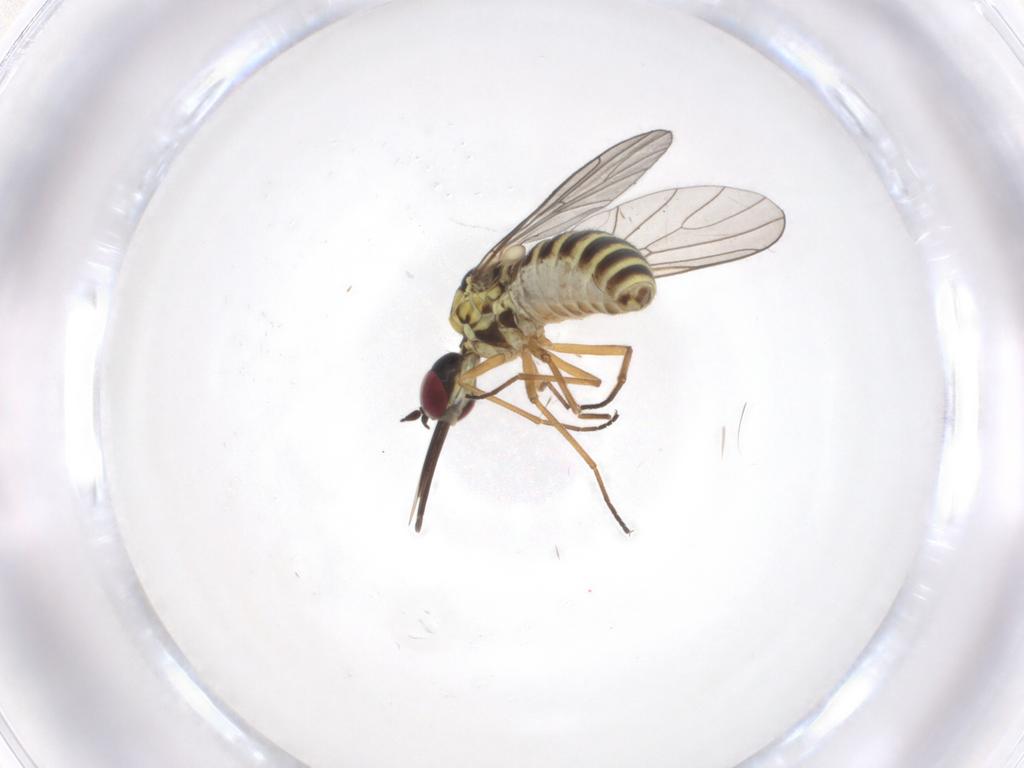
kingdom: Animalia
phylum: Arthropoda
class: Insecta
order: Diptera
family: Bombyliidae
